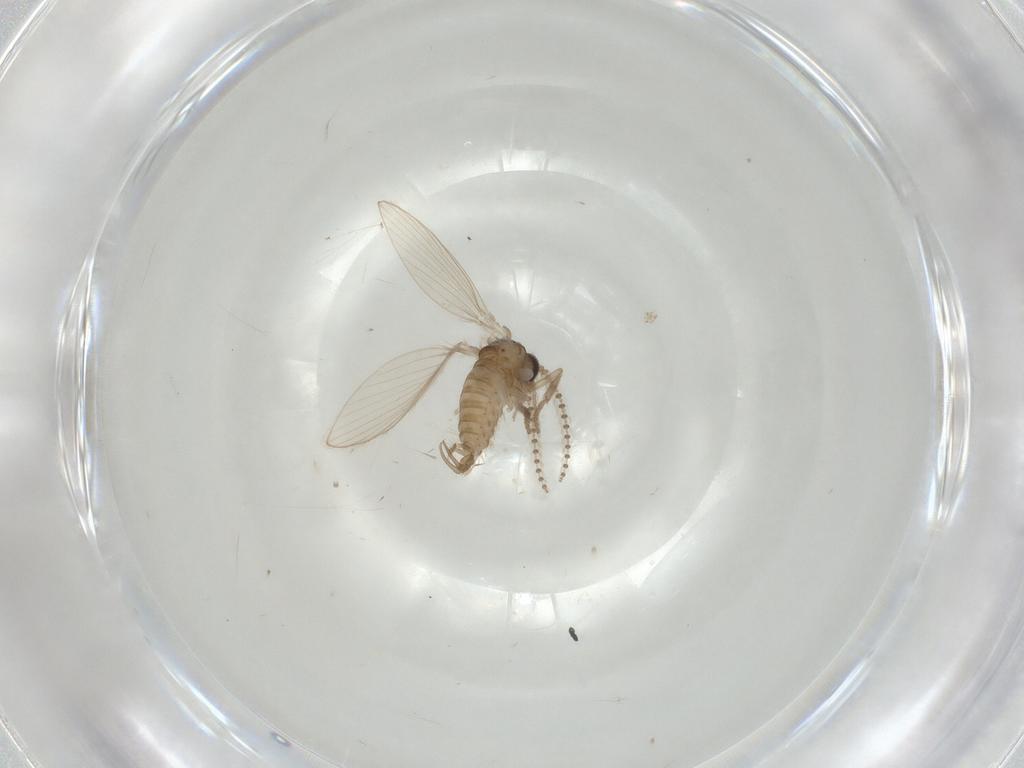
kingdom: Animalia
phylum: Arthropoda
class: Insecta
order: Diptera
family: Psychodidae
